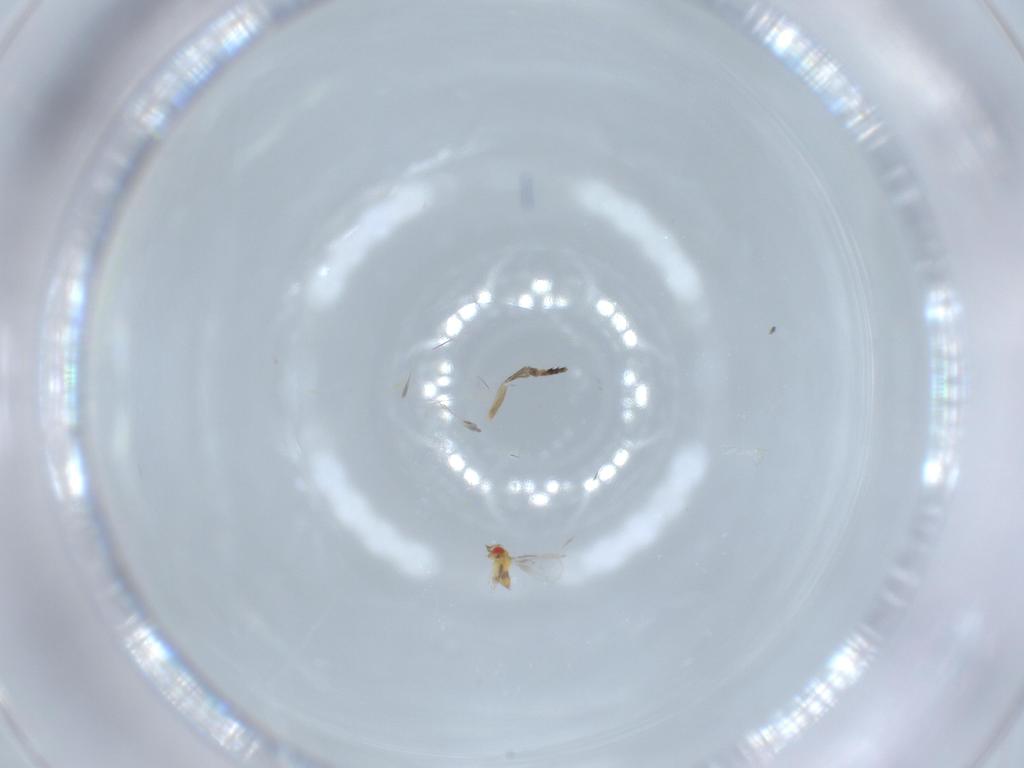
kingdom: Animalia
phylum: Arthropoda
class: Insecta
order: Hymenoptera
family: Trichogrammatidae
